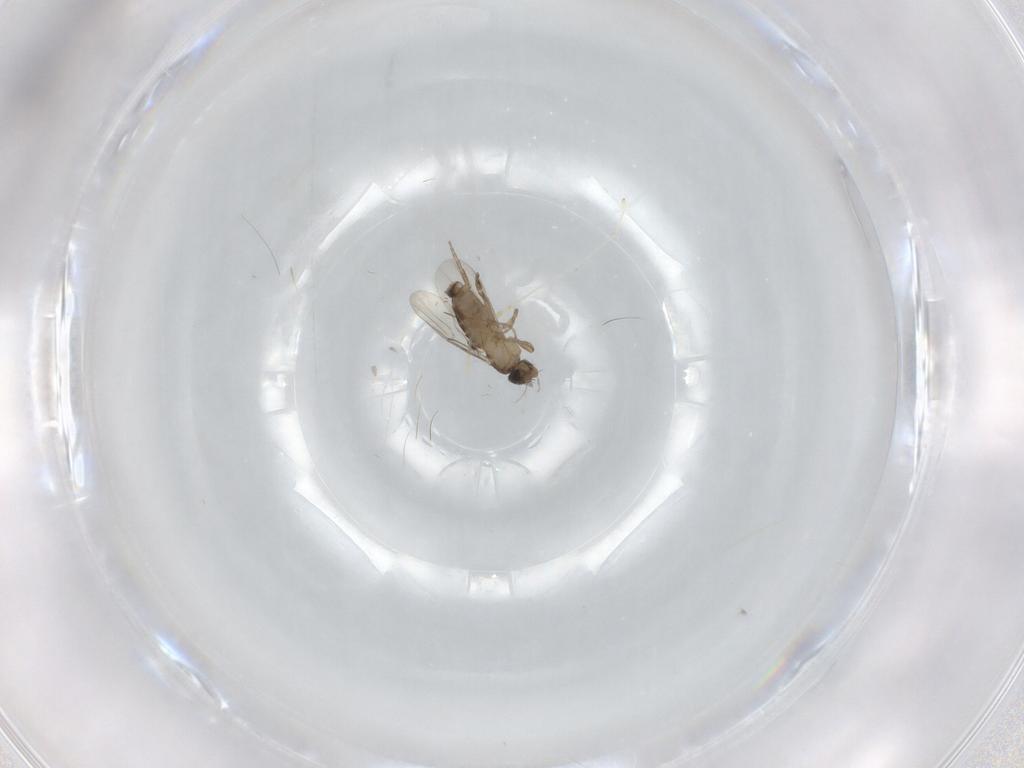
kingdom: Animalia
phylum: Arthropoda
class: Insecta
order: Diptera
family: Phoridae
